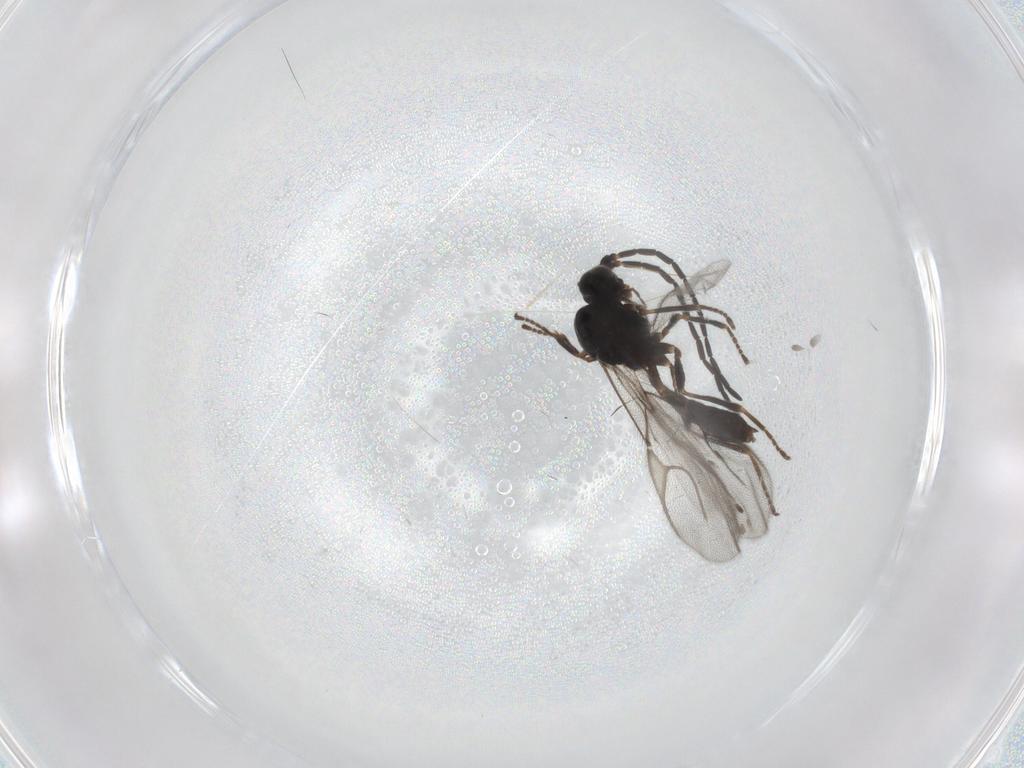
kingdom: Animalia
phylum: Arthropoda
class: Insecta
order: Hymenoptera
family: Braconidae
